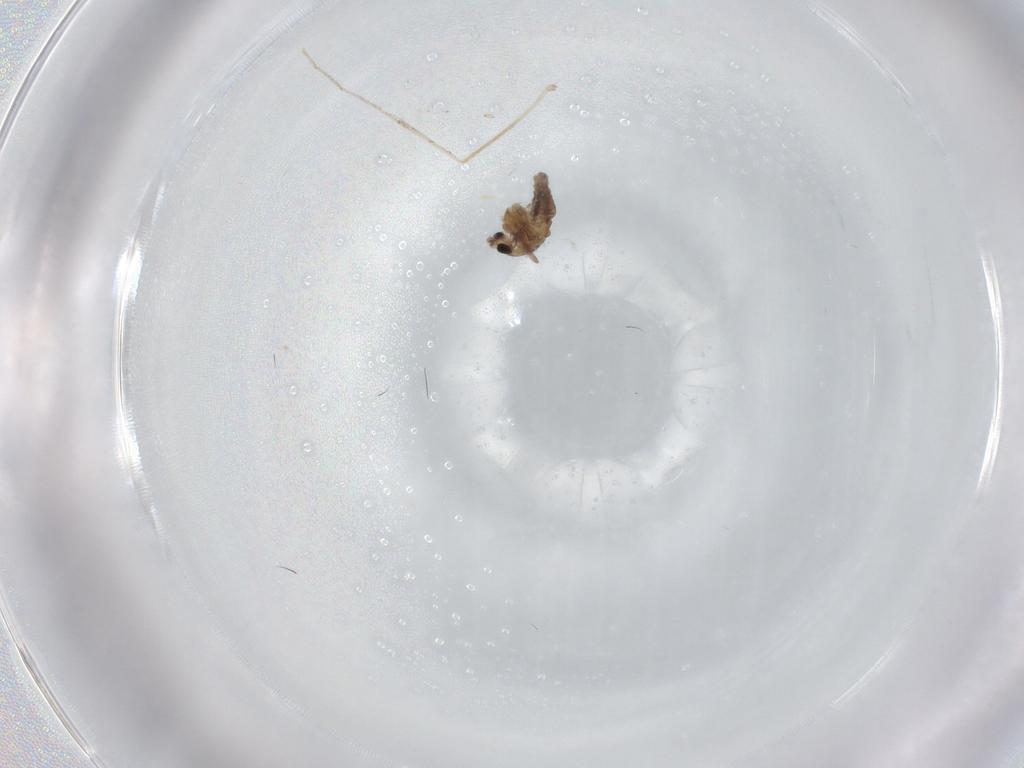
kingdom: Animalia
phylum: Arthropoda
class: Insecta
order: Diptera
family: Chironomidae
